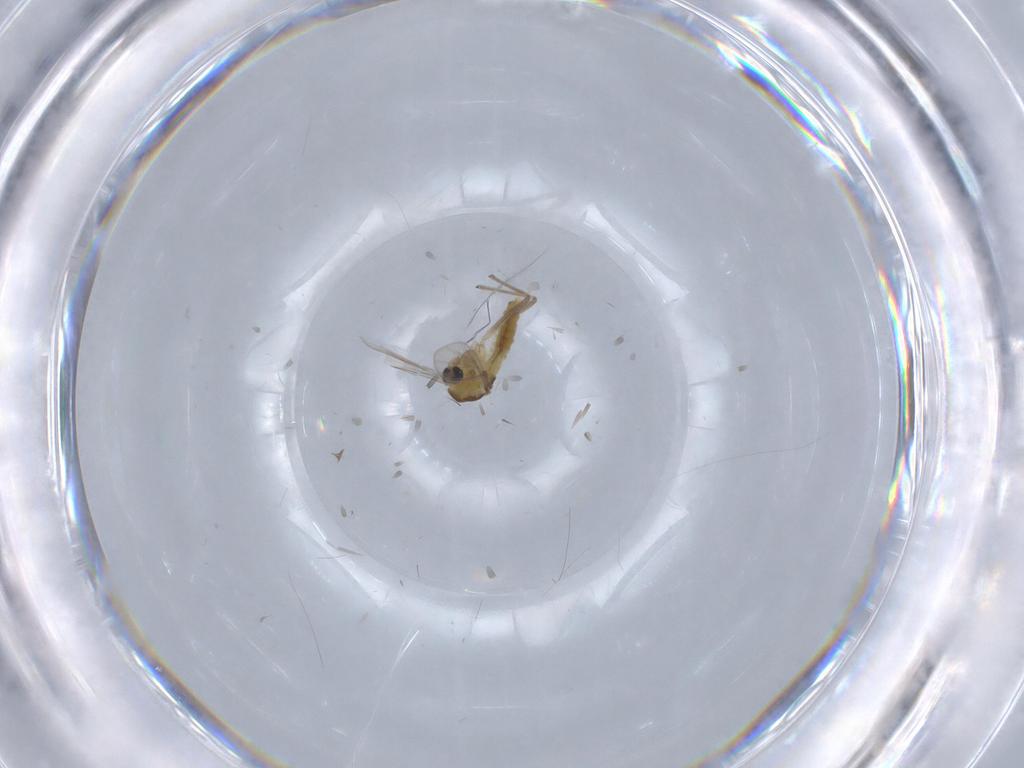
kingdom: Animalia
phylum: Arthropoda
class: Insecta
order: Diptera
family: Chironomidae
